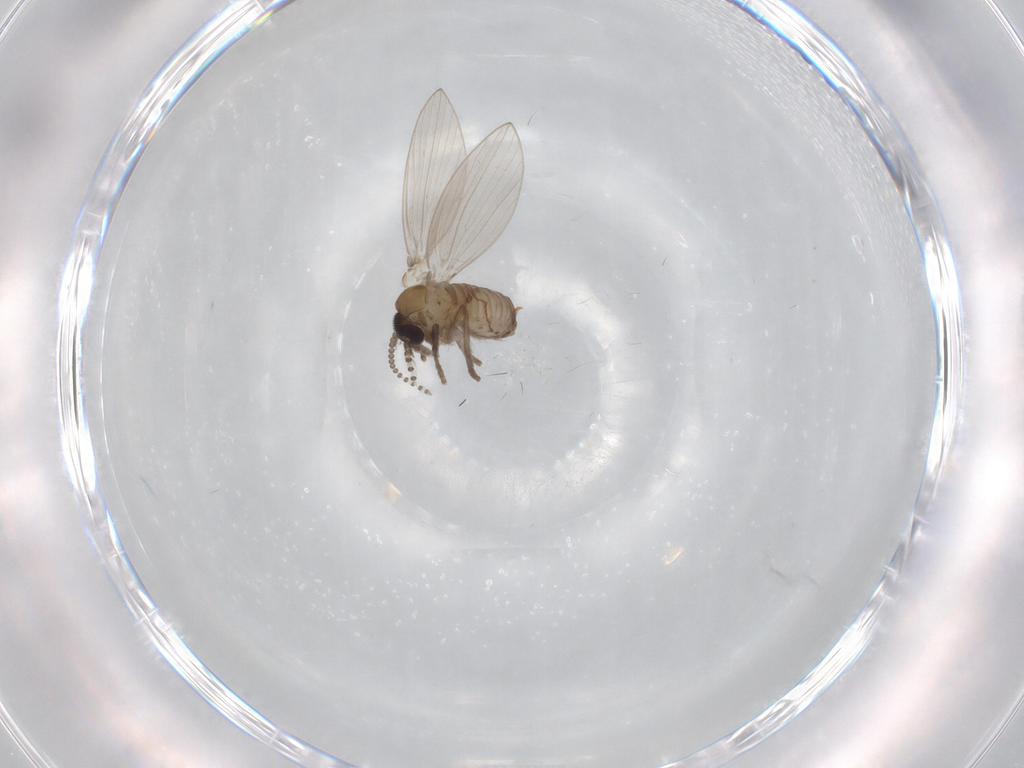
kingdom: Animalia
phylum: Arthropoda
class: Insecta
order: Diptera
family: Psychodidae
